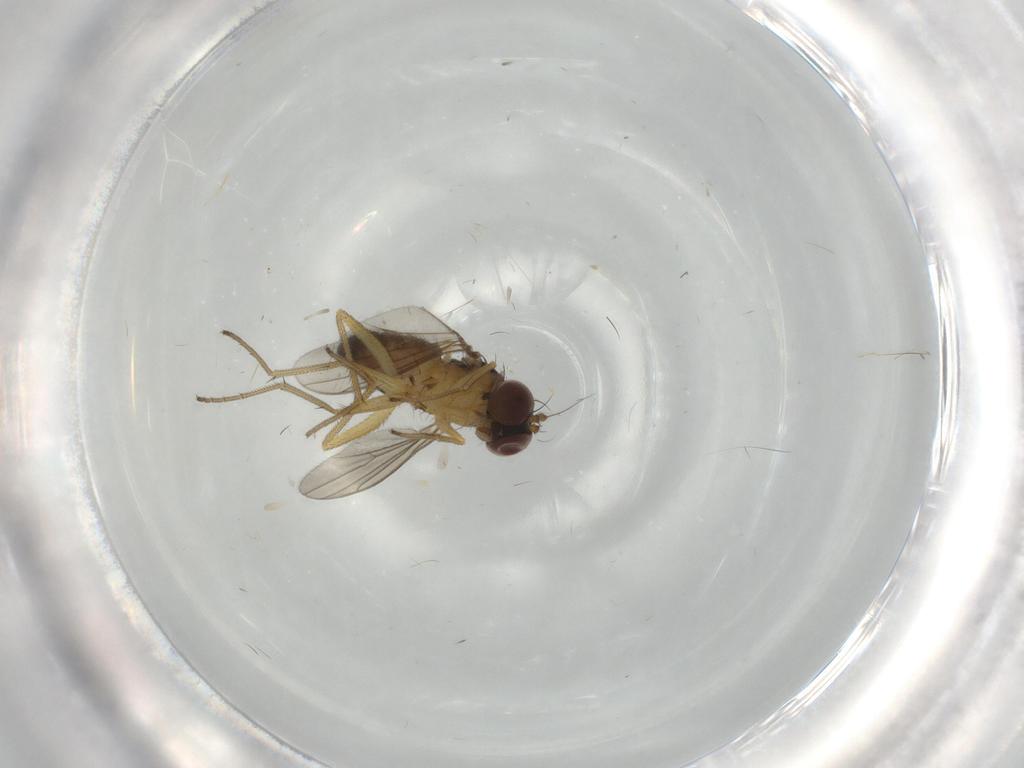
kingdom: Animalia
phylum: Arthropoda
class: Insecta
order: Diptera
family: Dolichopodidae
